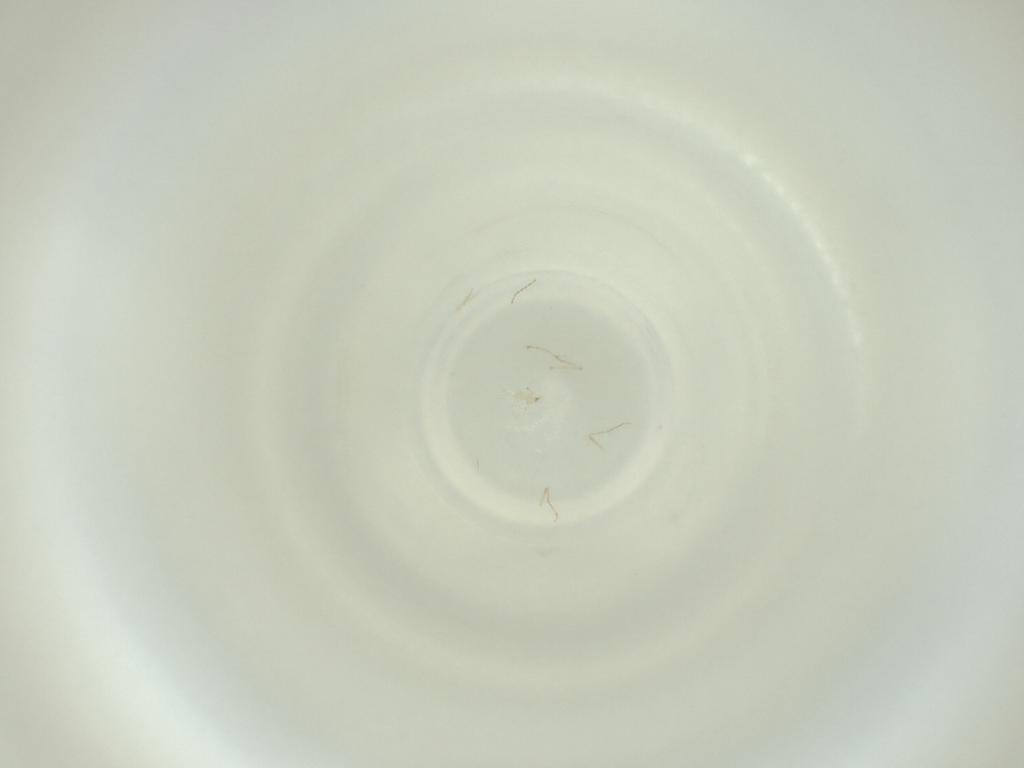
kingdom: Animalia
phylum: Arthropoda
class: Insecta
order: Diptera
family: Cecidomyiidae
